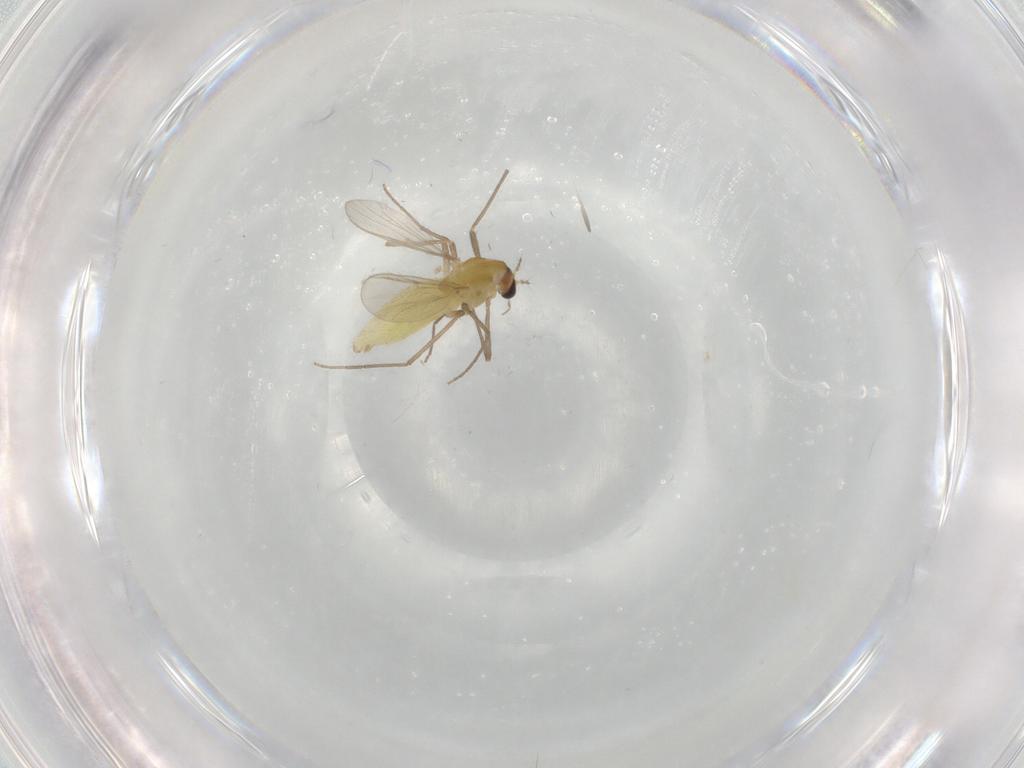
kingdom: Animalia
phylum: Arthropoda
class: Insecta
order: Diptera
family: Chironomidae
